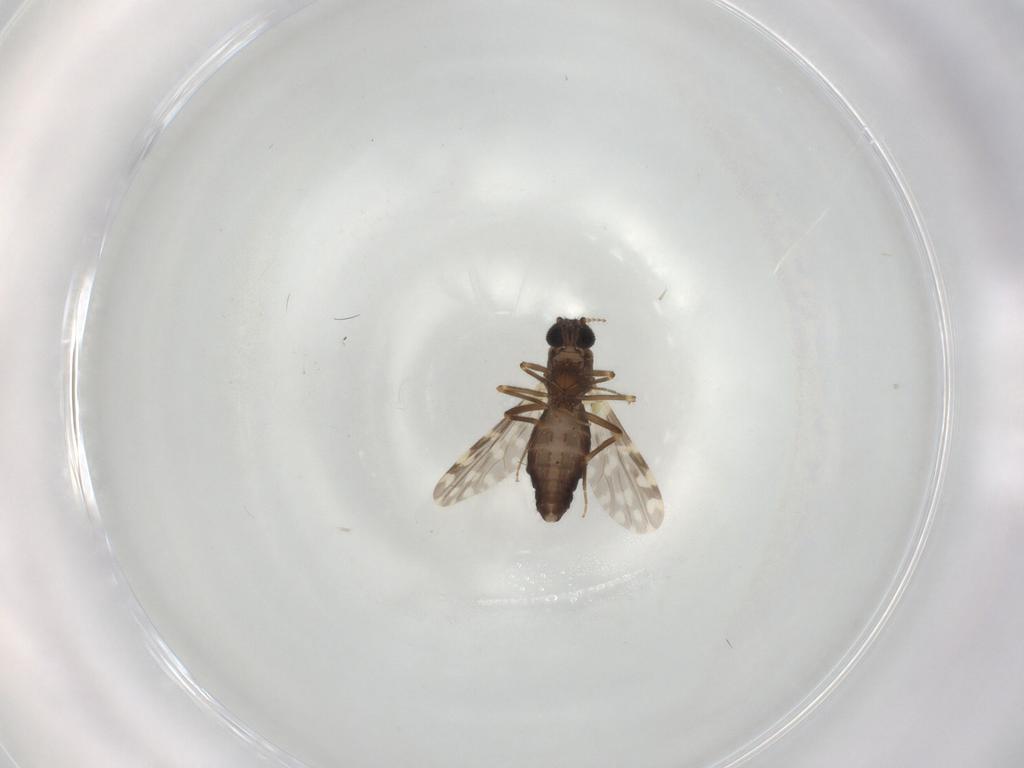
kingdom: Animalia
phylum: Arthropoda
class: Insecta
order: Diptera
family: Ceratopogonidae
